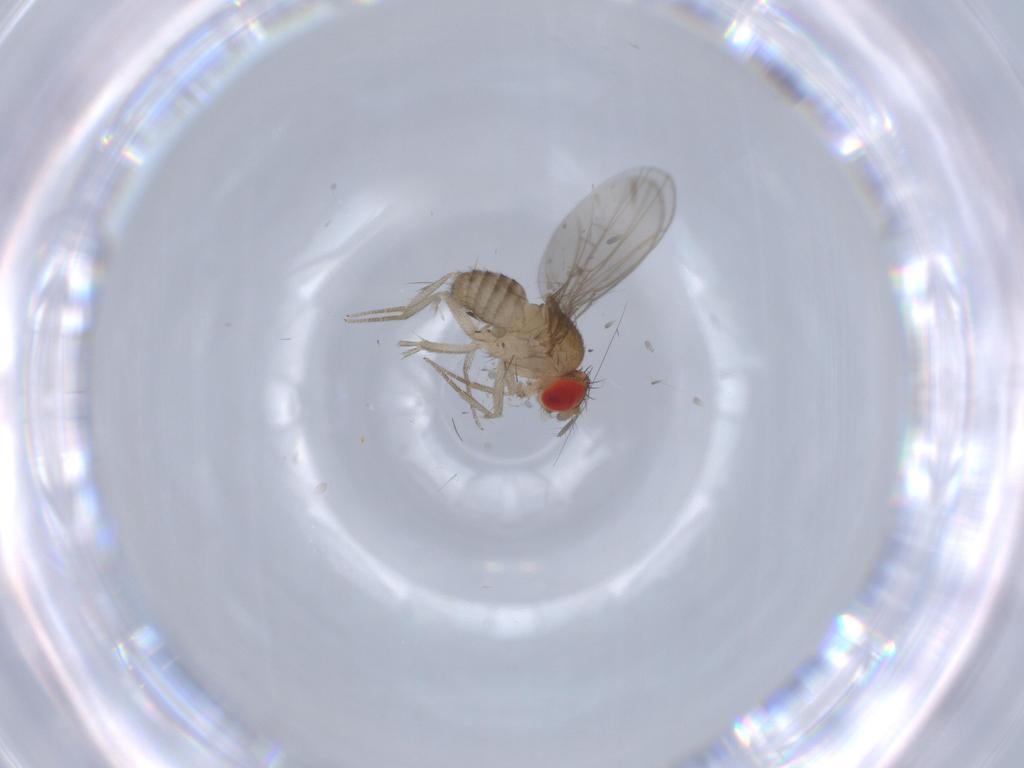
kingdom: Animalia
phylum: Arthropoda
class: Insecta
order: Diptera
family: Drosophilidae
